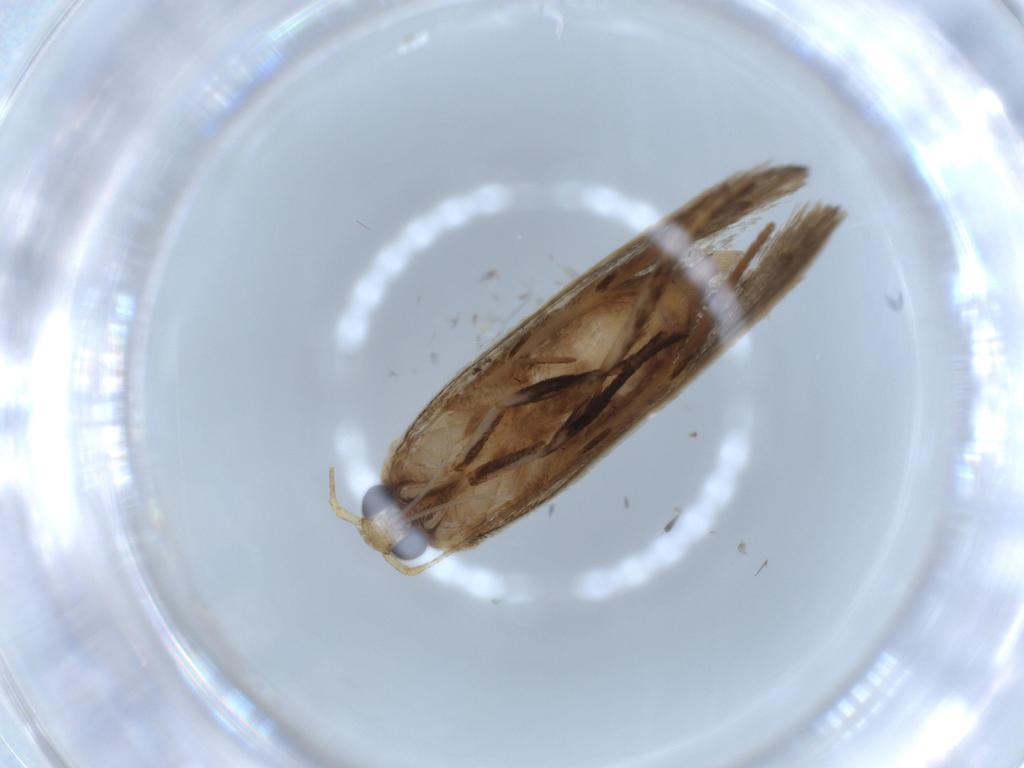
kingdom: Animalia
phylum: Arthropoda
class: Insecta
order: Lepidoptera
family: Oecophoridae
